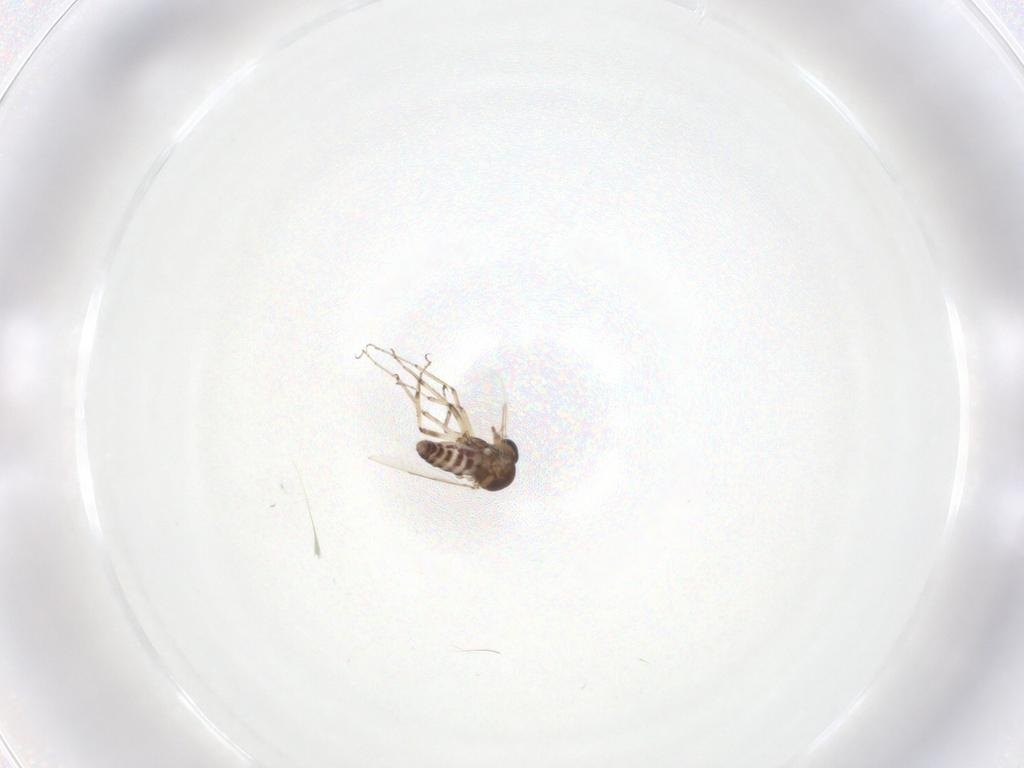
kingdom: Animalia
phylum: Arthropoda
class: Insecta
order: Diptera
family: Ceratopogonidae
